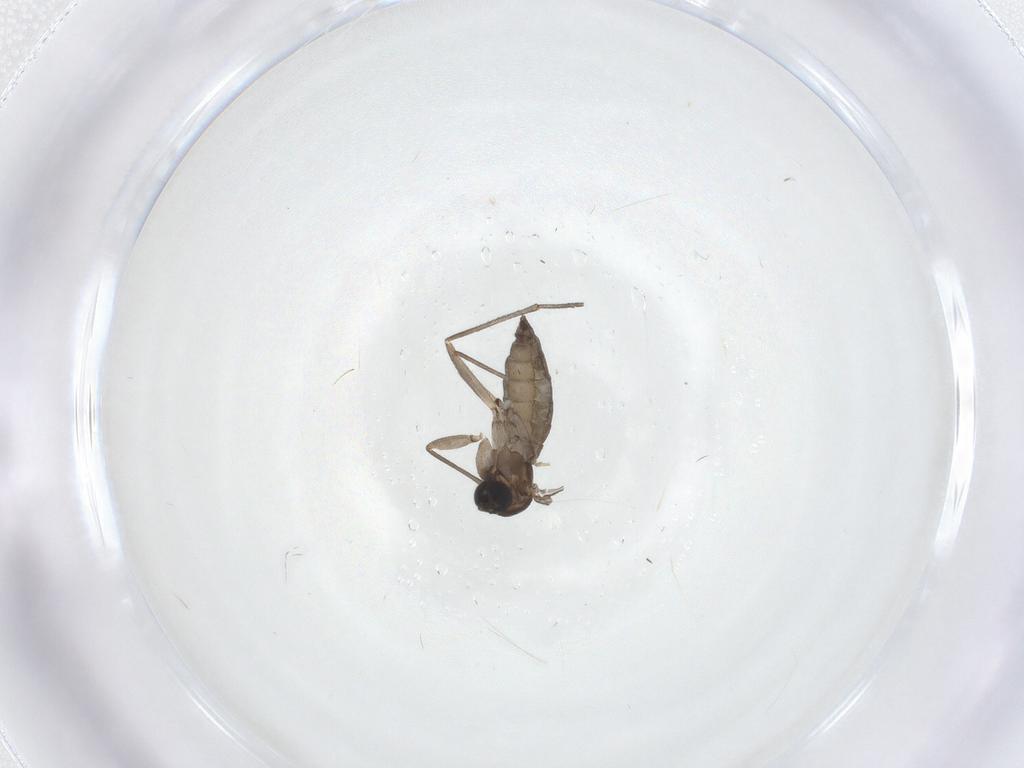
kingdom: Animalia
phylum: Arthropoda
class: Insecta
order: Diptera
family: Sciaridae
